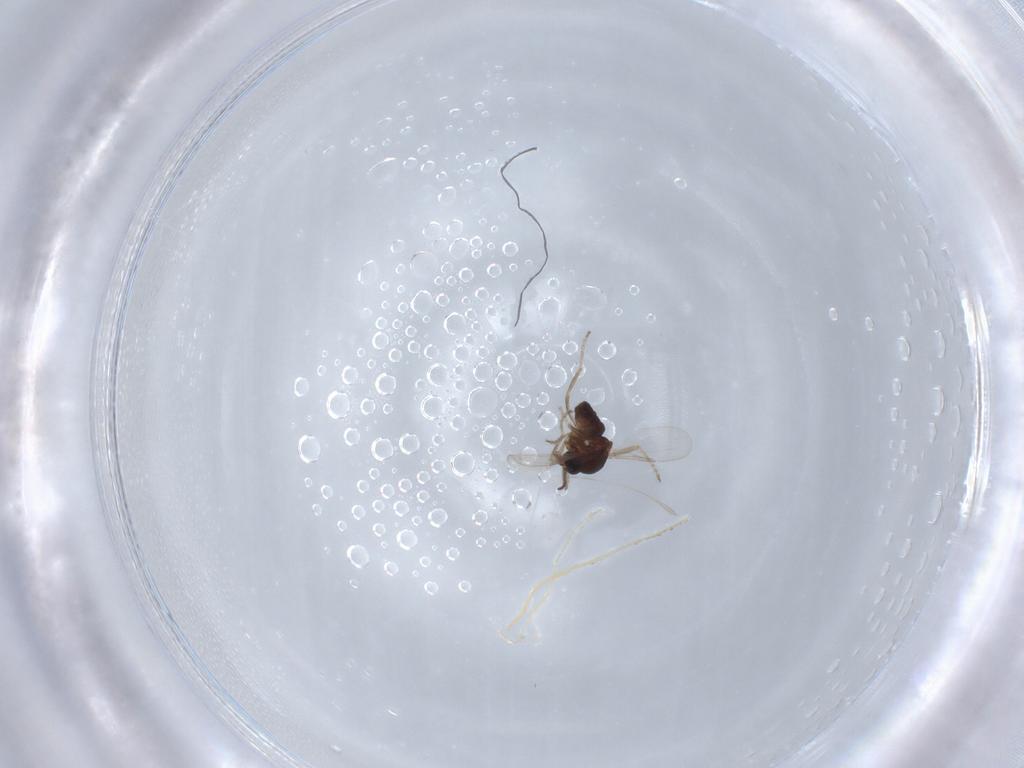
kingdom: Animalia
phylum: Arthropoda
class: Insecta
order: Diptera
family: Ceratopogonidae
